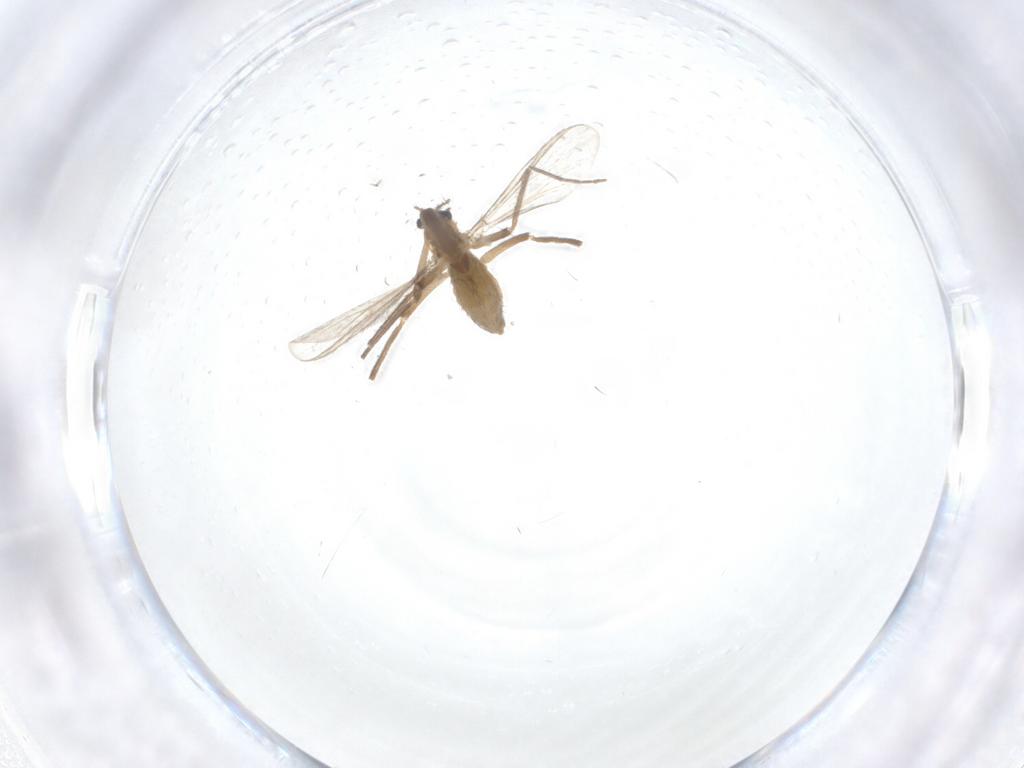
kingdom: Animalia
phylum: Arthropoda
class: Insecta
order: Diptera
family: Chironomidae
